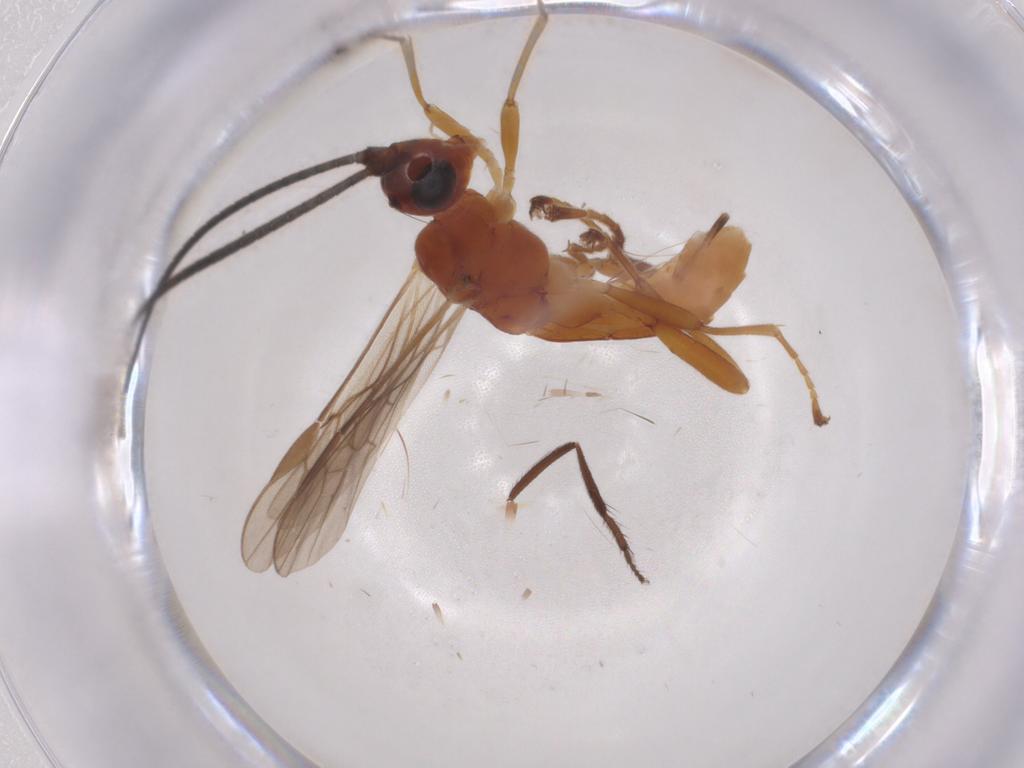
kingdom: Animalia
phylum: Arthropoda
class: Insecta
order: Hymenoptera
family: Braconidae
